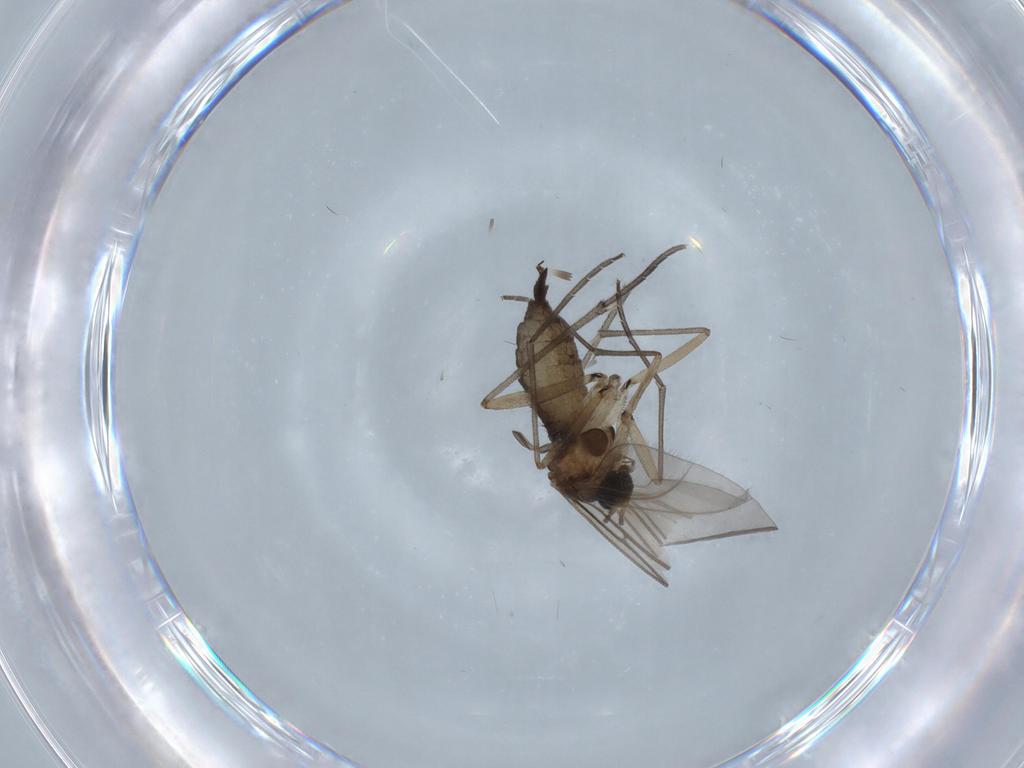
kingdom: Animalia
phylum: Arthropoda
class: Insecta
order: Diptera
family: Sciaridae
